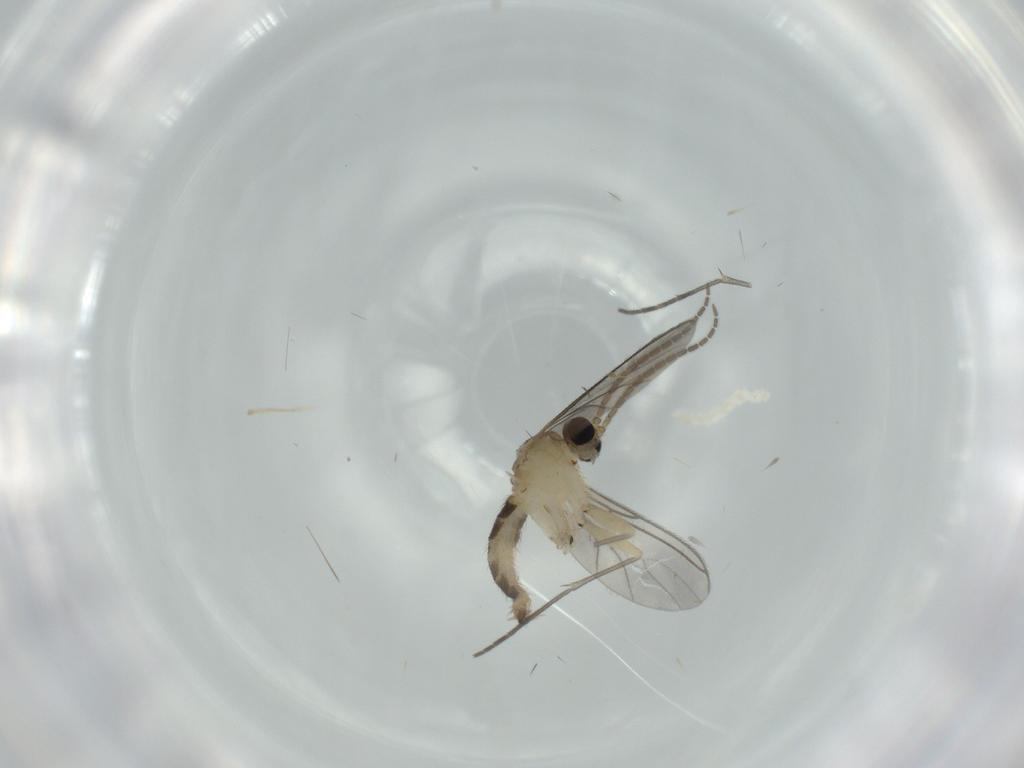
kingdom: Animalia
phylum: Arthropoda
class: Insecta
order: Diptera
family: Sciaridae
